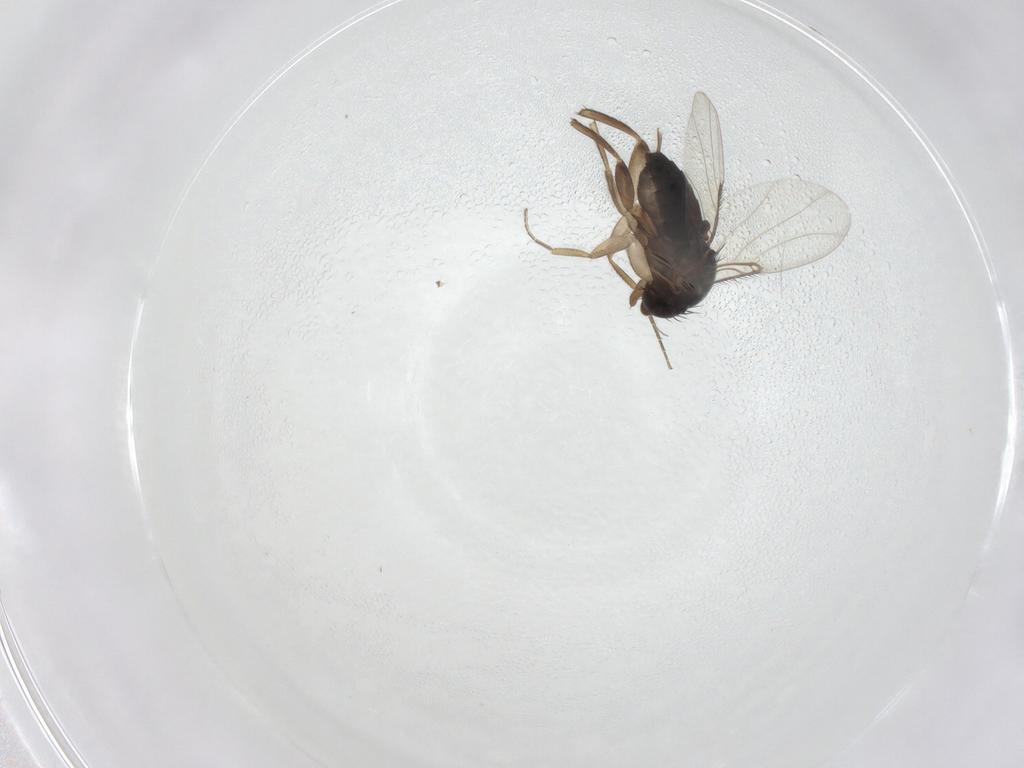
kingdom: Animalia
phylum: Arthropoda
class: Insecta
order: Diptera
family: Phoridae
